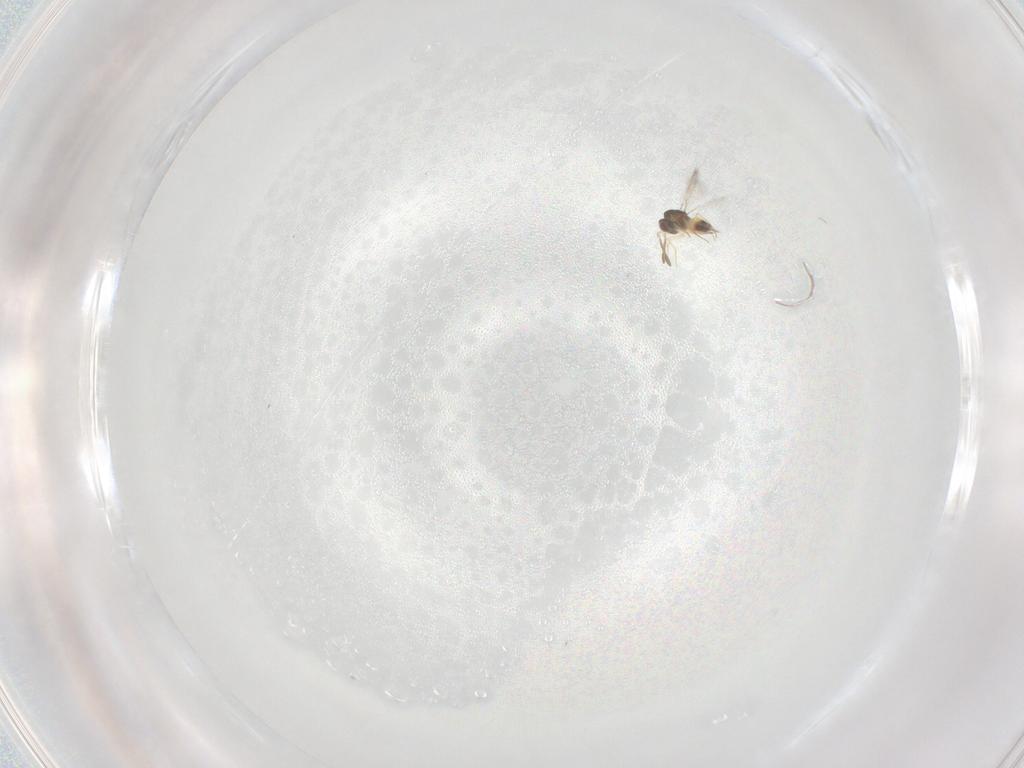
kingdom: Animalia
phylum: Arthropoda
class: Insecta
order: Hymenoptera
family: Mymaridae
